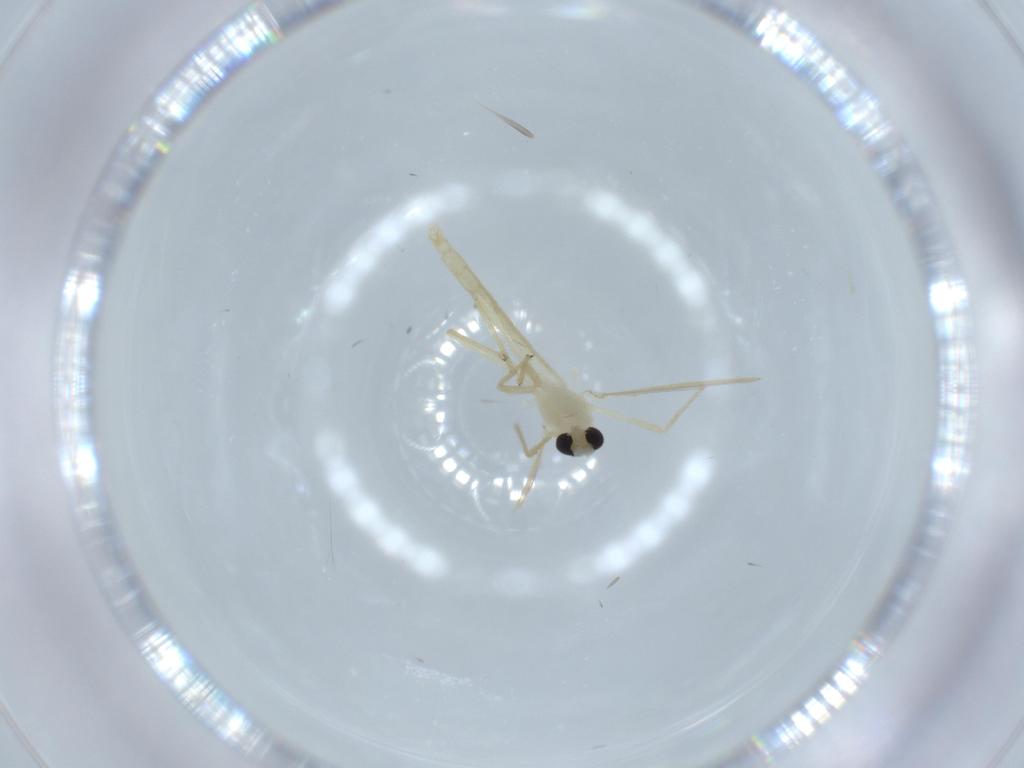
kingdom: Animalia
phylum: Arthropoda
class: Insecta
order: Diptera
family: Chironomidae
